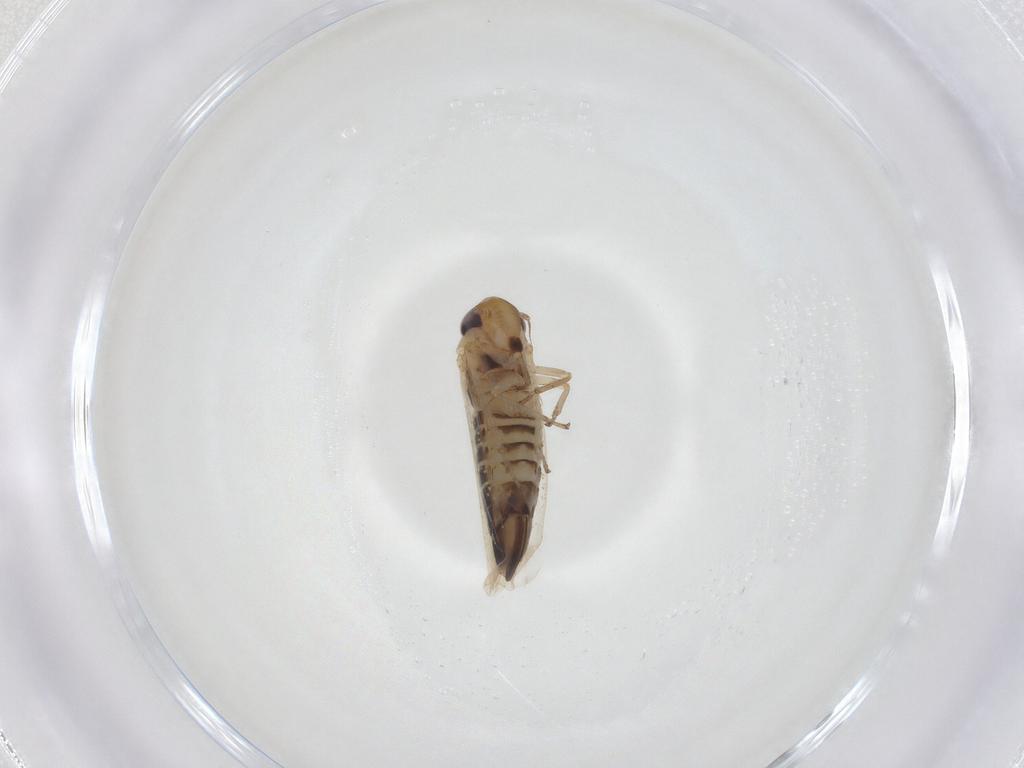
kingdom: Animalia
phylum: Arthropoda
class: Insecta
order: Hemiptera
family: Cicadellidae
